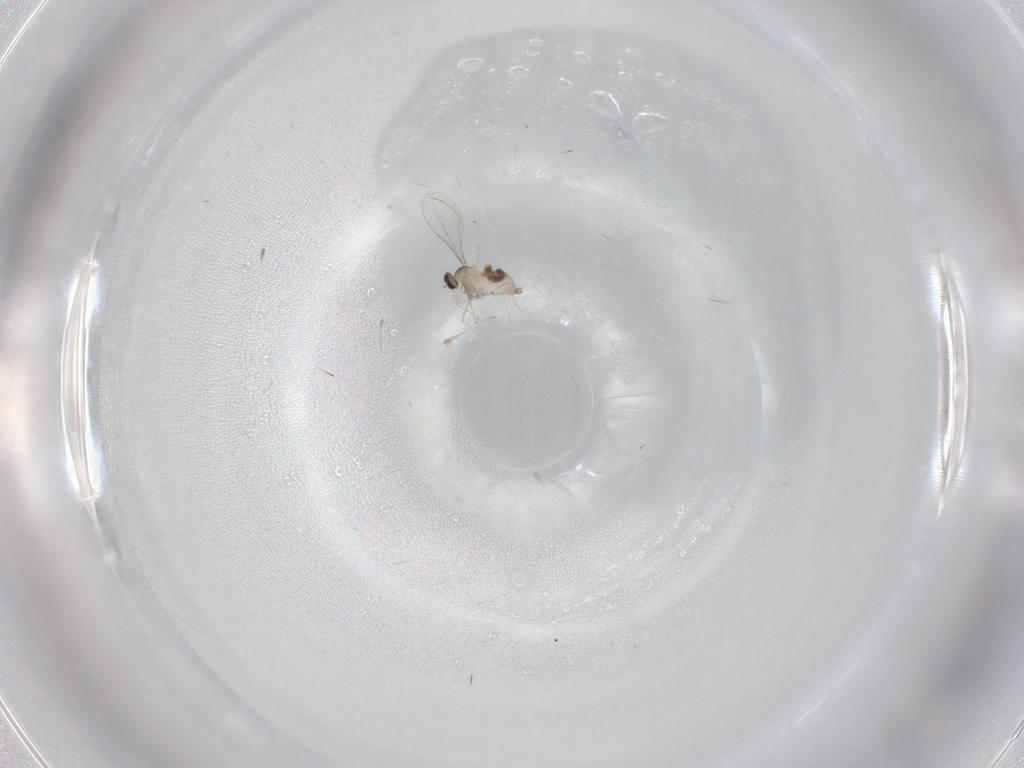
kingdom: Animalia
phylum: Arthropoda
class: Insecta
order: Diptera
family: Cecidomyiidae
